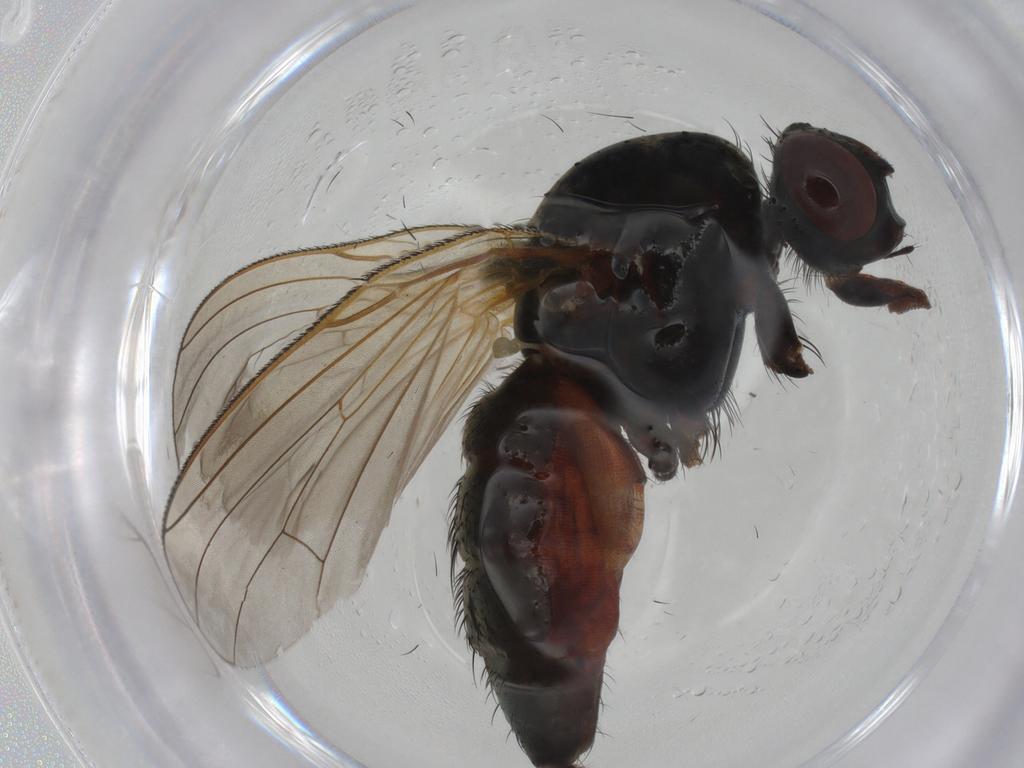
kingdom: Animalia
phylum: Arthropoda
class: Insecta
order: Diptera
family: Anthomyiidae
